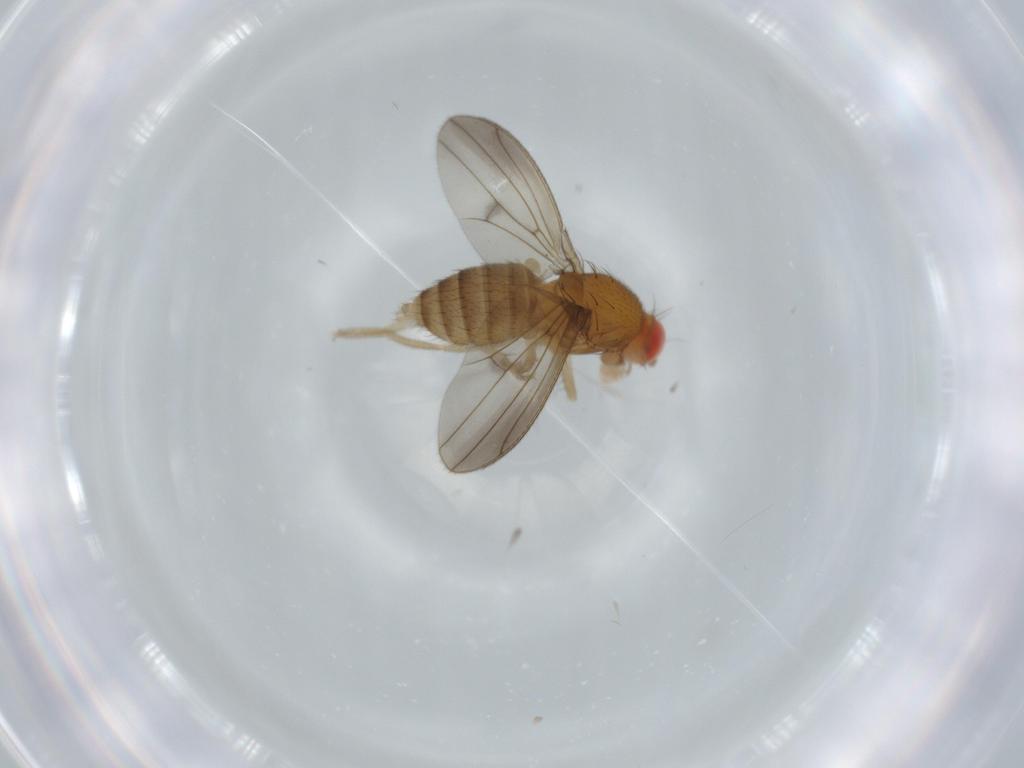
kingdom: Animalia
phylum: Arthropoda
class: Insecta
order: Diptera
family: Drosophilidae
